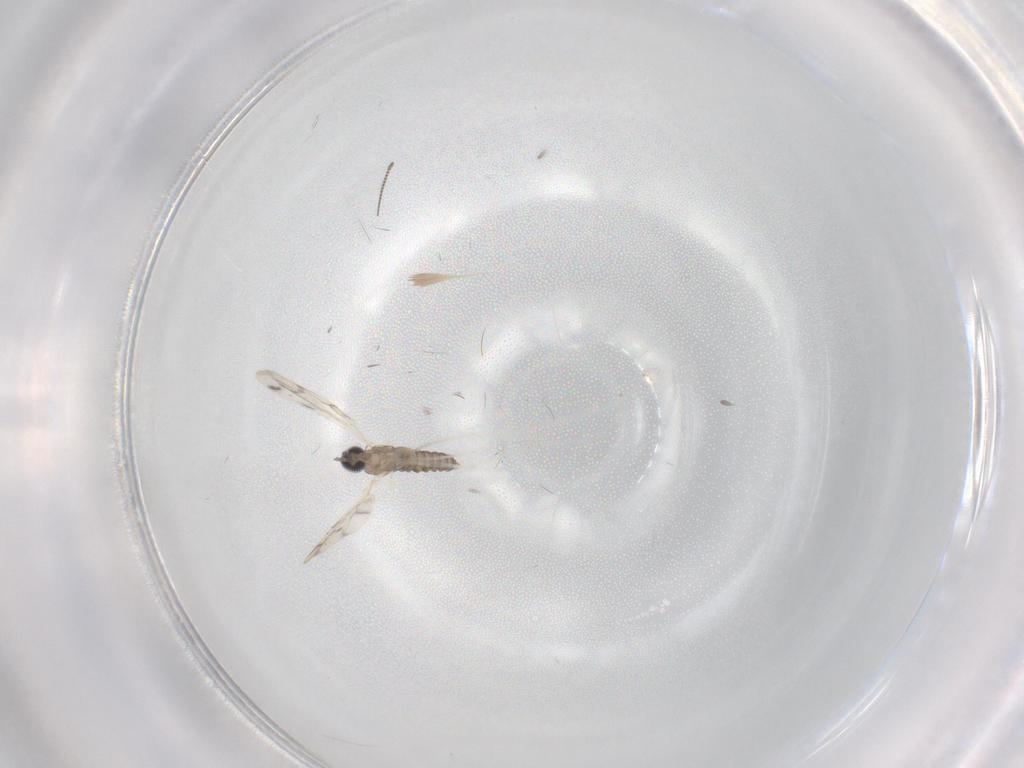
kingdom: Animalia
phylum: Arthropoda
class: Insecta
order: Diptera
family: Cecidomyiidae
